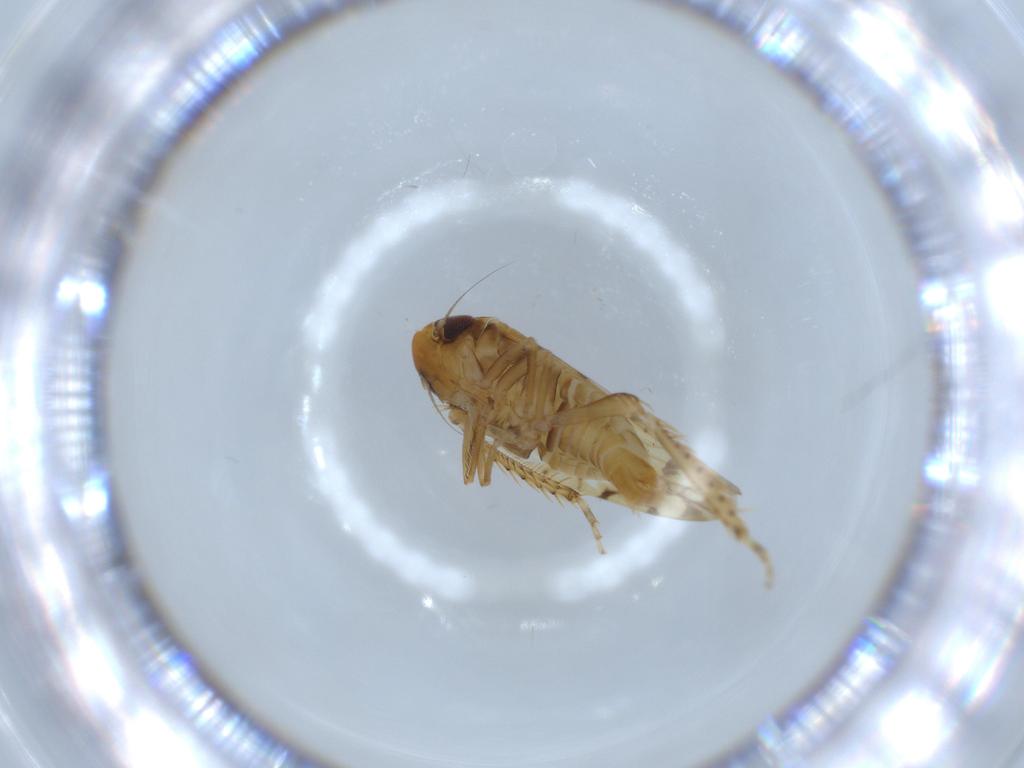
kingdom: Animalia
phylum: Arthropoda
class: Insecta
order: Hemiptera
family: Cicadellidae
